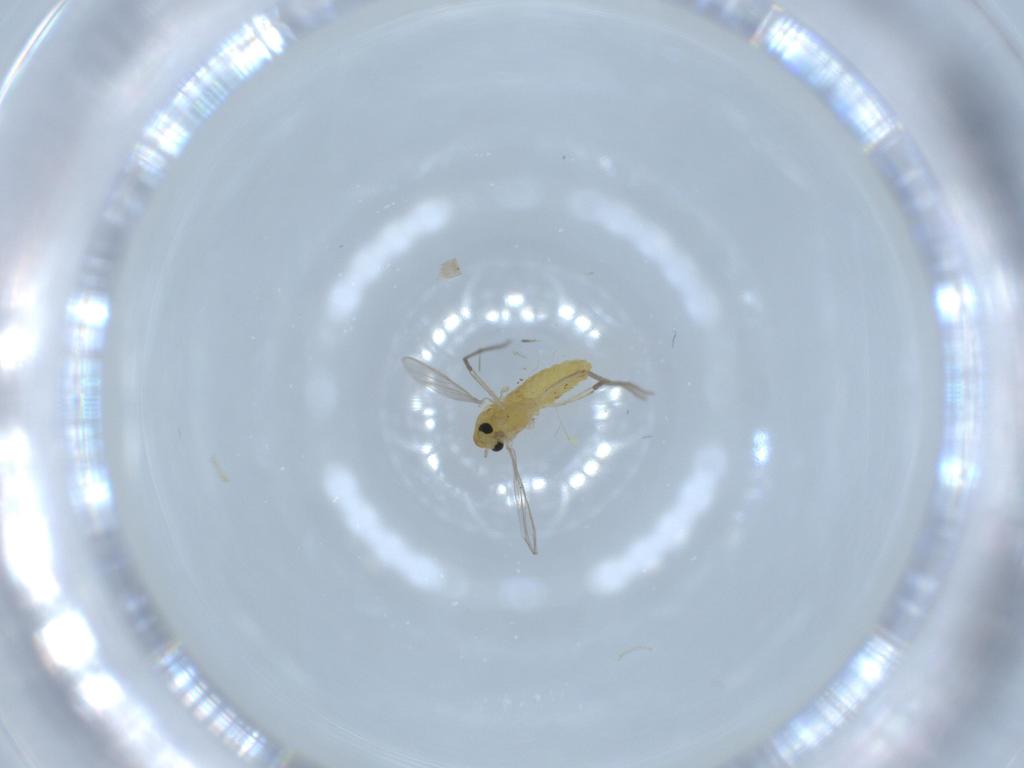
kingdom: Animalia
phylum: Arthropoda
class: Insecta
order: Diptera
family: Chironomidae
